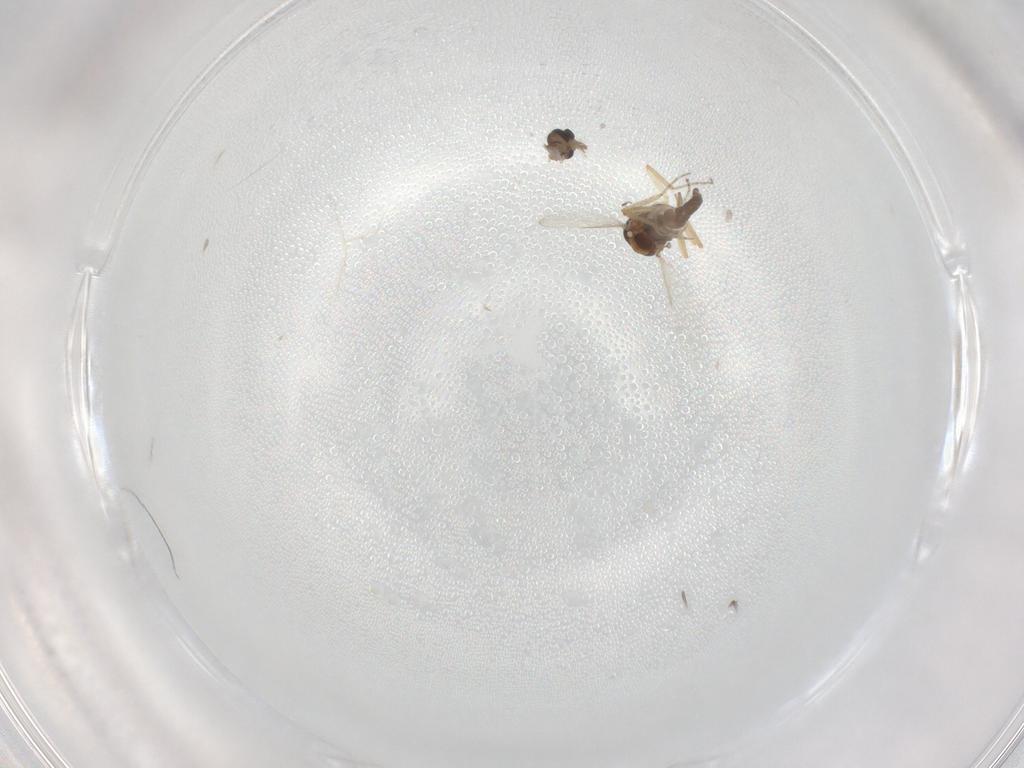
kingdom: Animalia
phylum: Arthropoda
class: Insecta
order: Diptera
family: Ceratopogonidae
